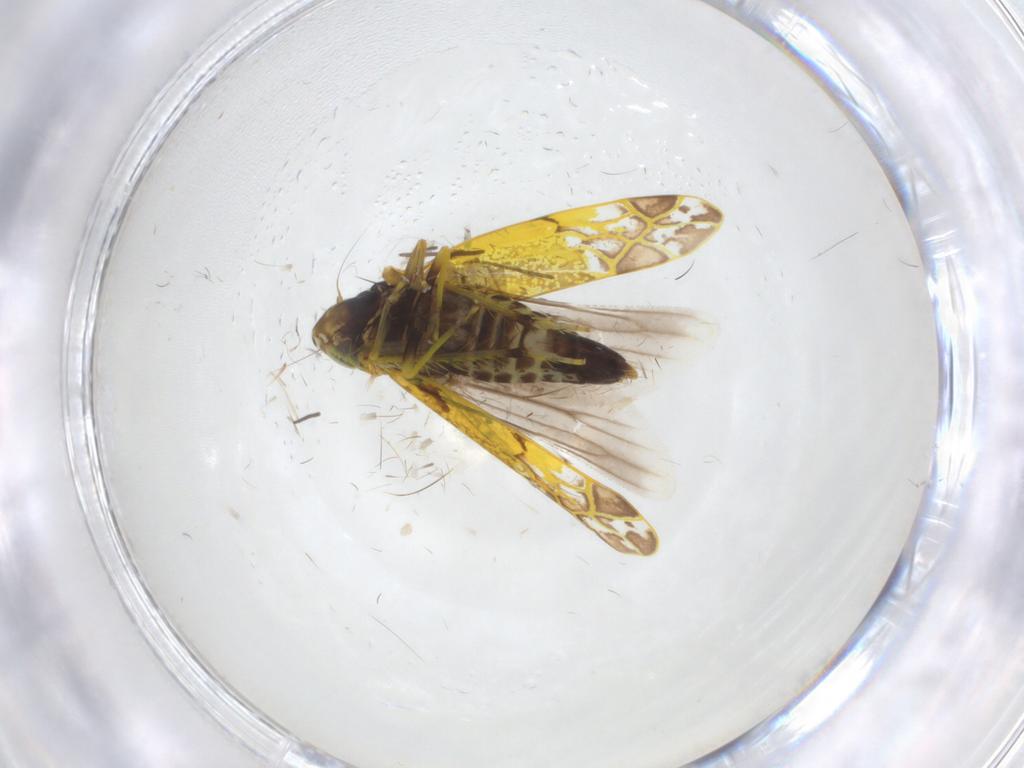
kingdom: Animalia
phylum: Arthropoda
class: Insecta
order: Hemiptera
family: Cicadellidae
